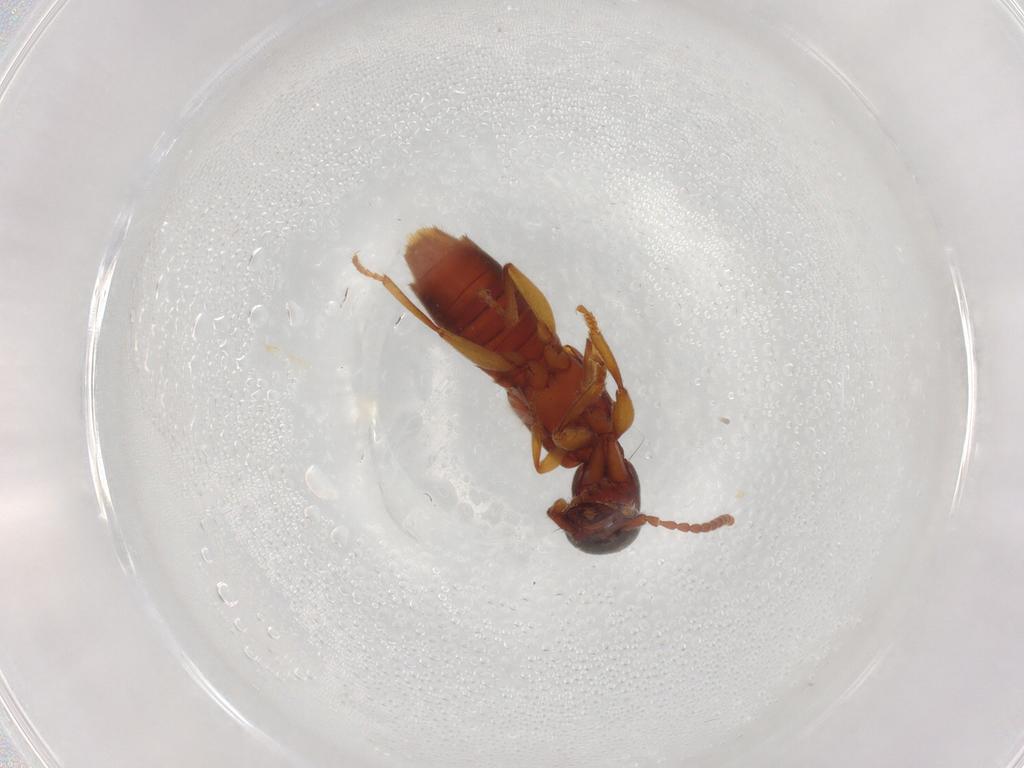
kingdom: Animalia
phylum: Arthropoda
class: Insecta
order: Coleoptera
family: Staphylinidae
